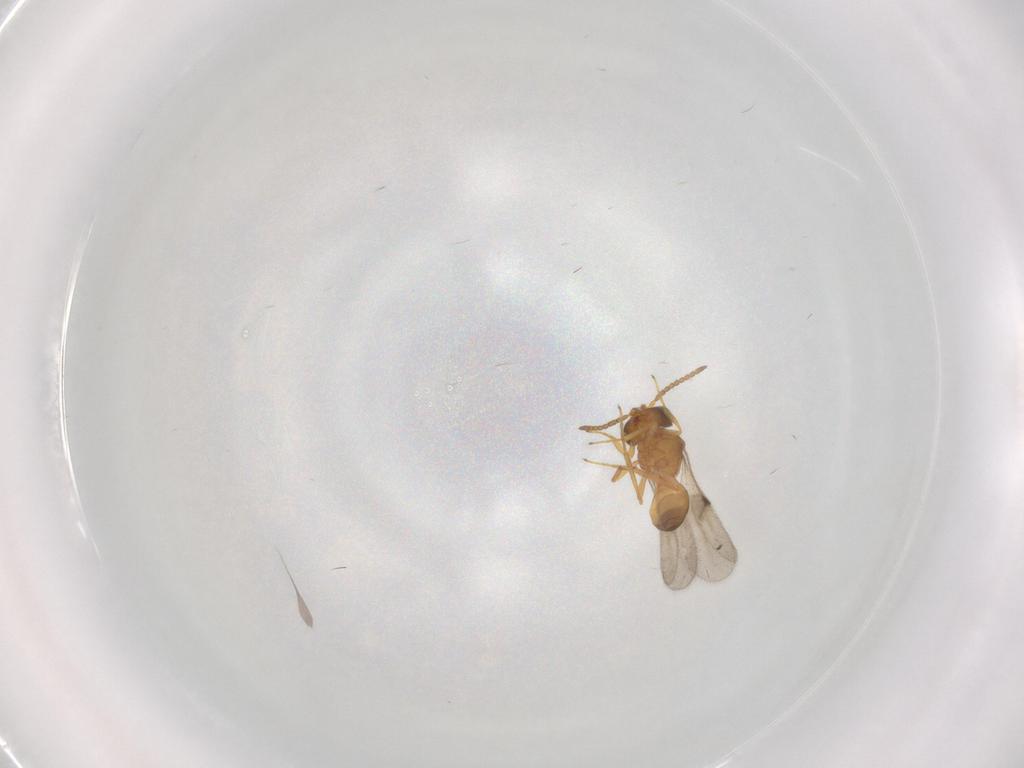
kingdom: Animalia
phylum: Arthropoda
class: Insecta
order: Hymenoptera
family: Scelionidae
